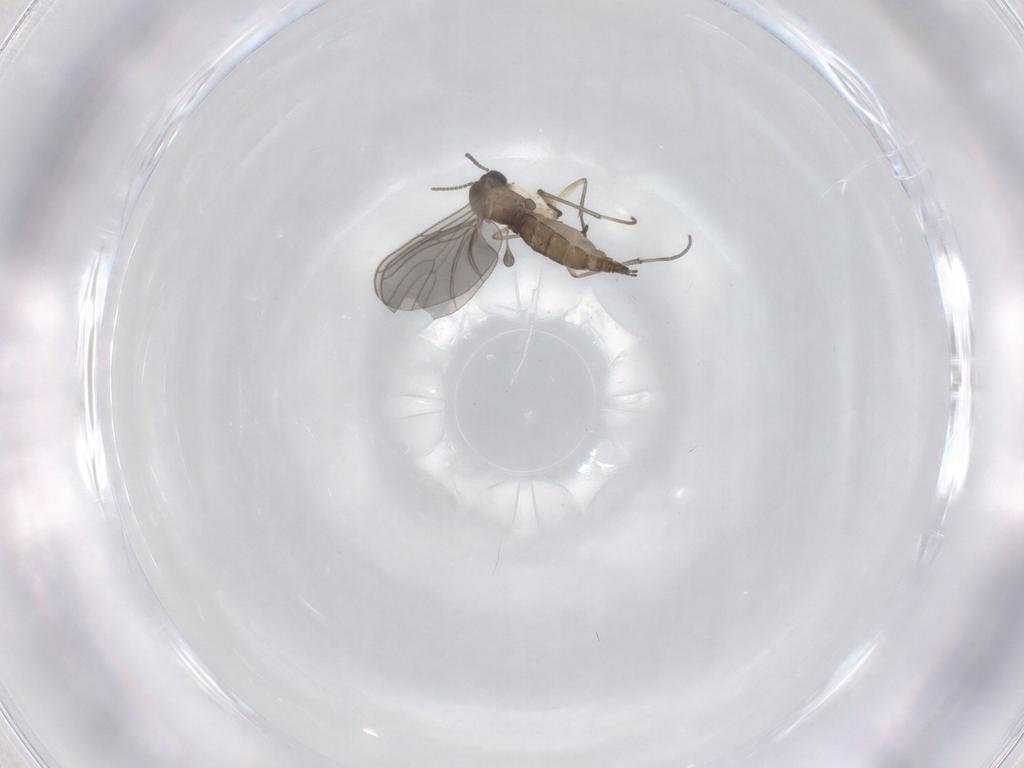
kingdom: Animalia
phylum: Arthropoda
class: Insecta
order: Diptera
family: Sciaridae
